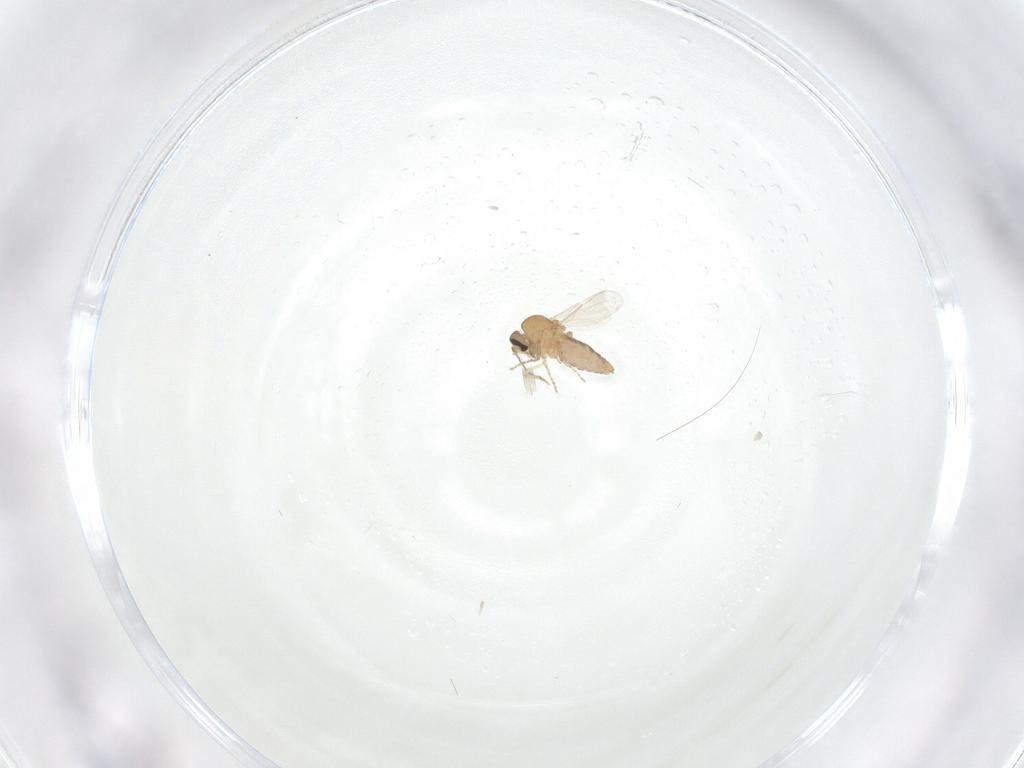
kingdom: Animalia
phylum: Arthropoda
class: Insecta
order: Diptera
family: Ceratopogonidae
